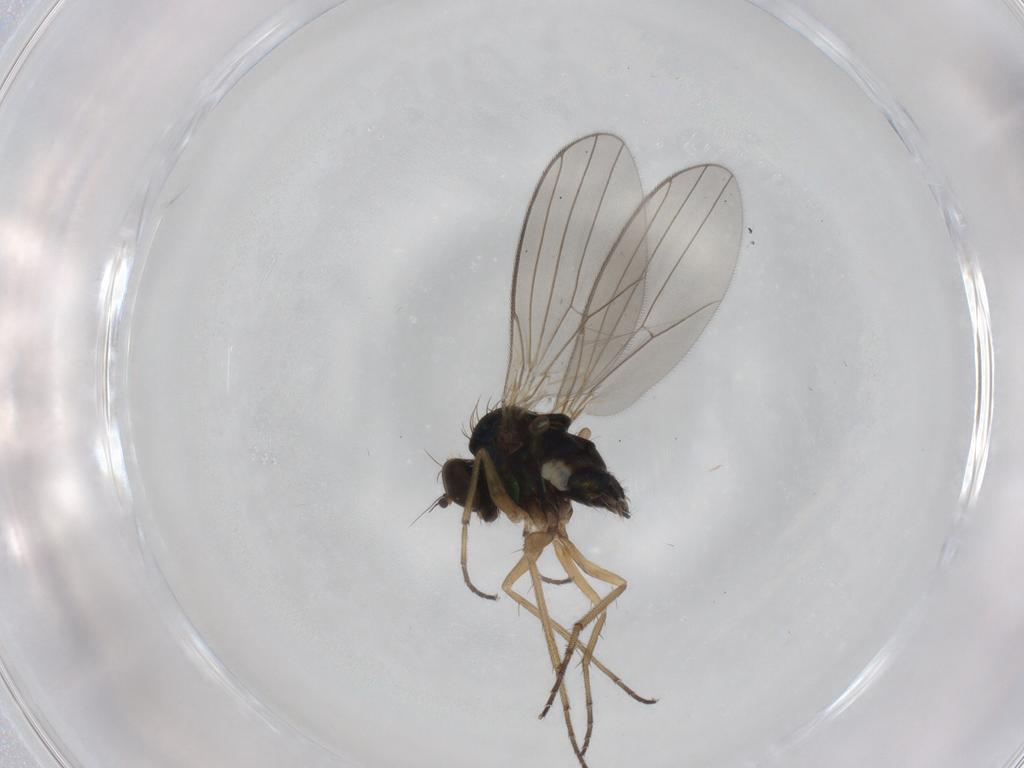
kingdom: Animalia
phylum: Arthropoda
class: Insecta
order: Diptera
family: Dolichopodidae
